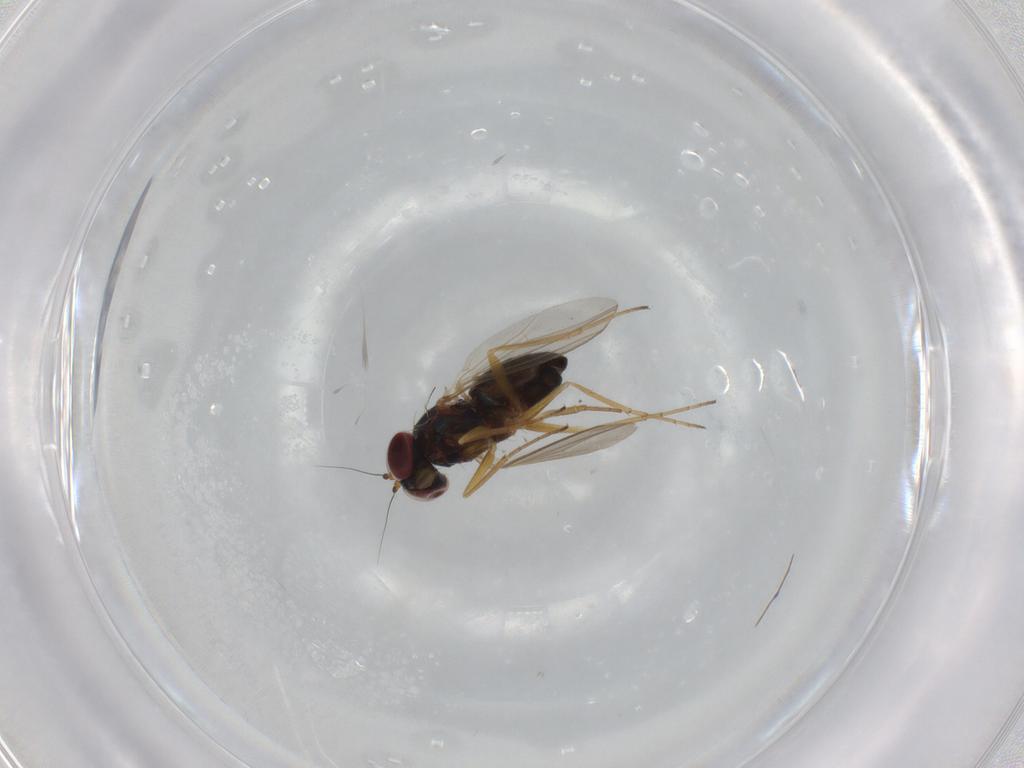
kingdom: Animalia
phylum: Arthropoda
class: Insecta
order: Diptera
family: Dolichopodidae
